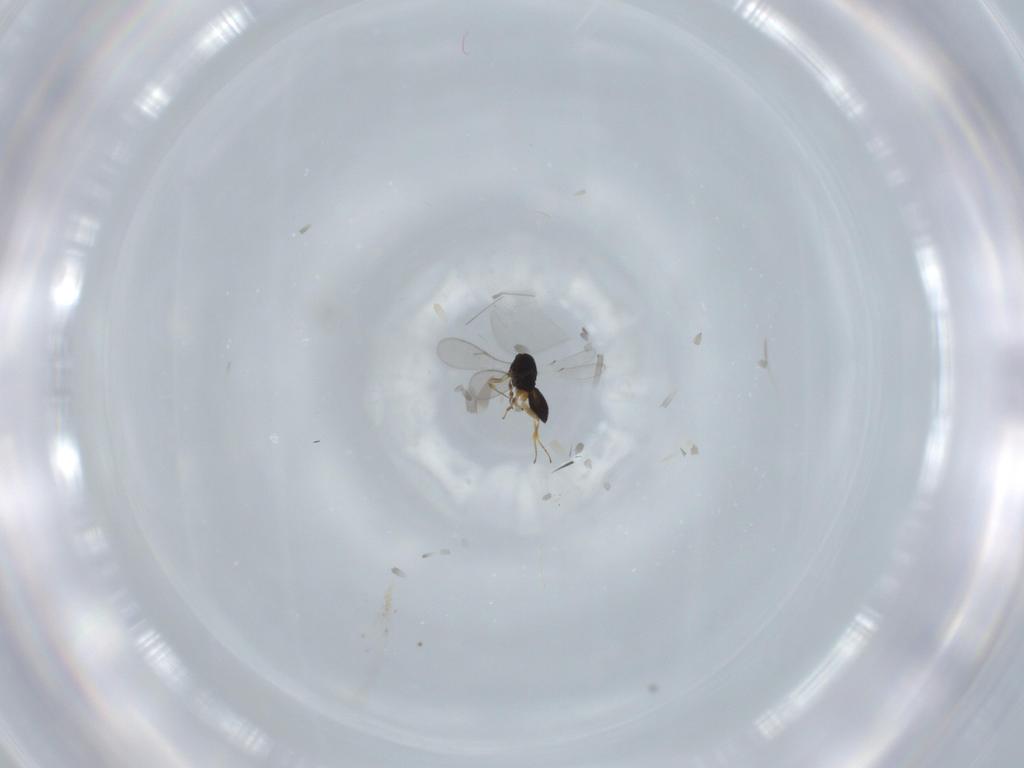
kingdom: Animalia
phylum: Arthropoda
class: Insecta
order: Hymenoptera
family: Scelionidae
